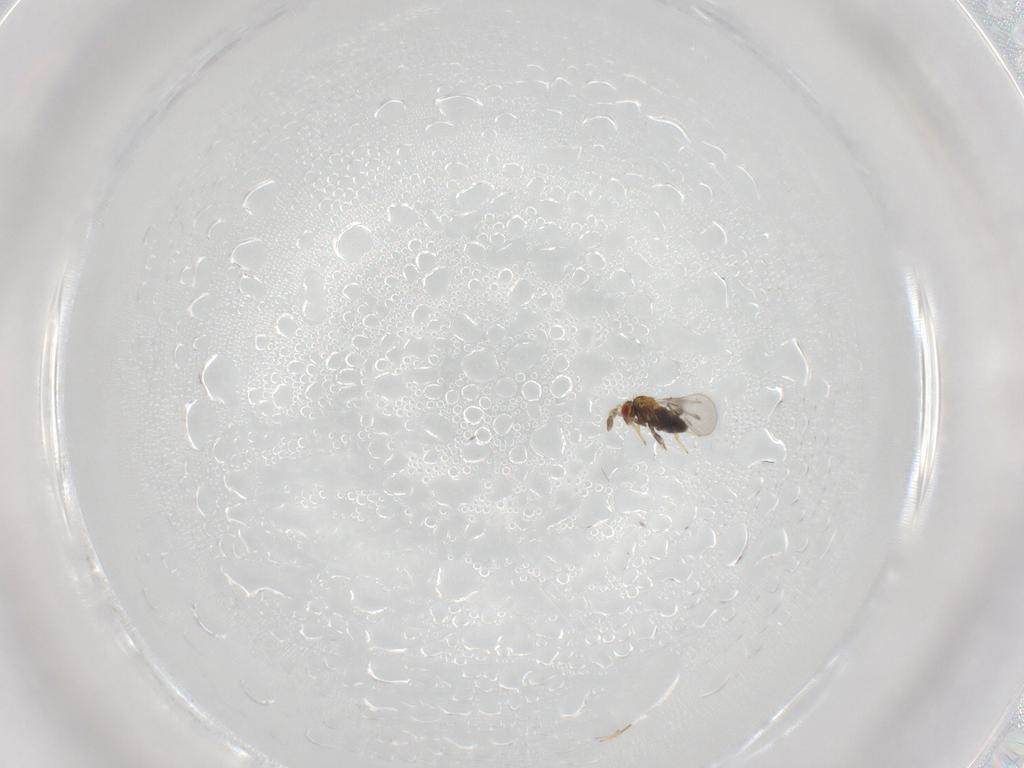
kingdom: Animalia
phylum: Arthropoda
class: Insecta
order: Hymenoptera
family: Trichogrammatidae
